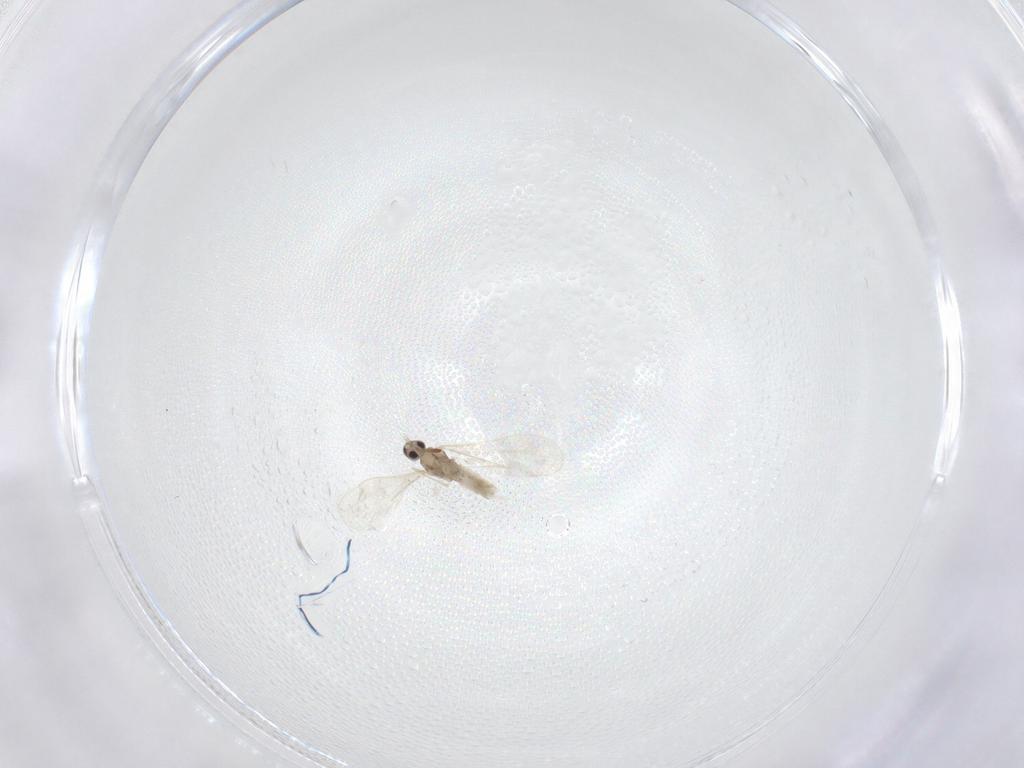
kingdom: Animalia
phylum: Arthropoda
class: Insecta
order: Diptera
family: Cecidomyiidae
